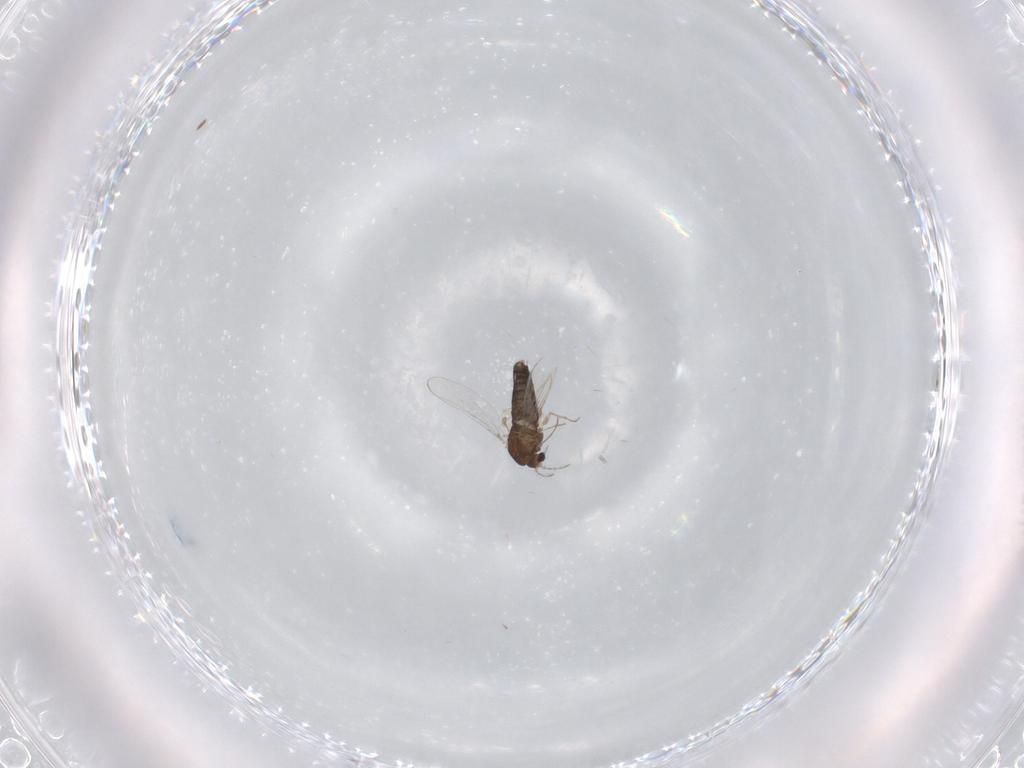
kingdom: Animalia
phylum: Arthropoda
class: Insecta
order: Diptera
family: Chironomidae
